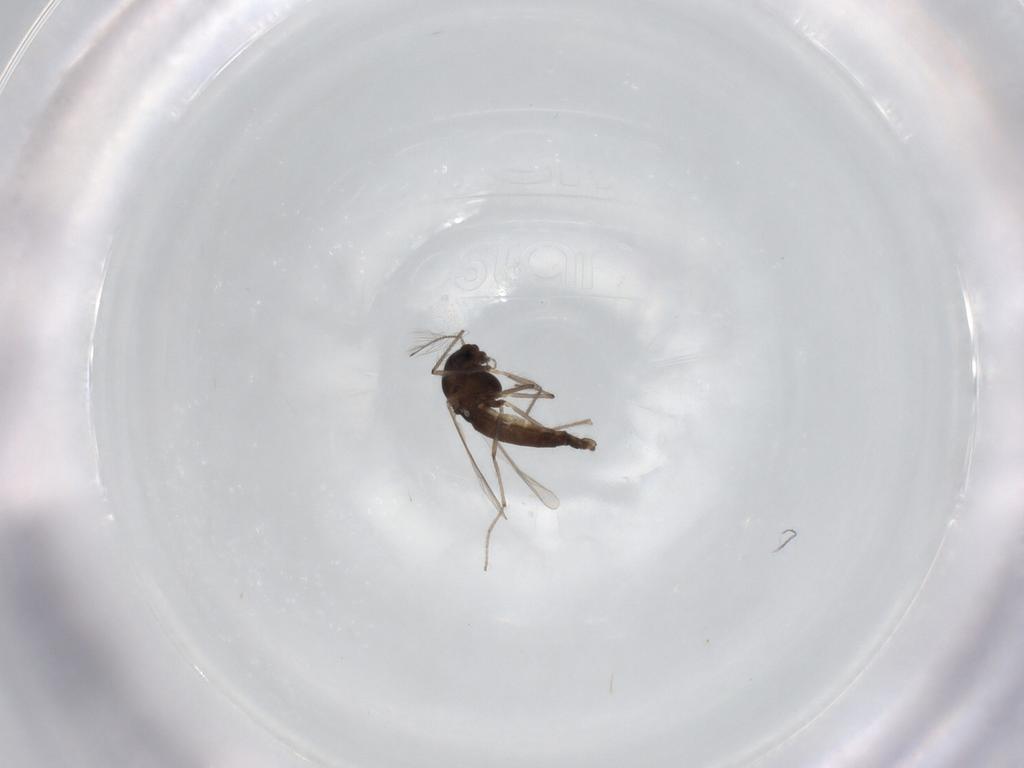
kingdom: Animalia
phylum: Arthropoda
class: Insecta
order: Diptera
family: Chironomidae
